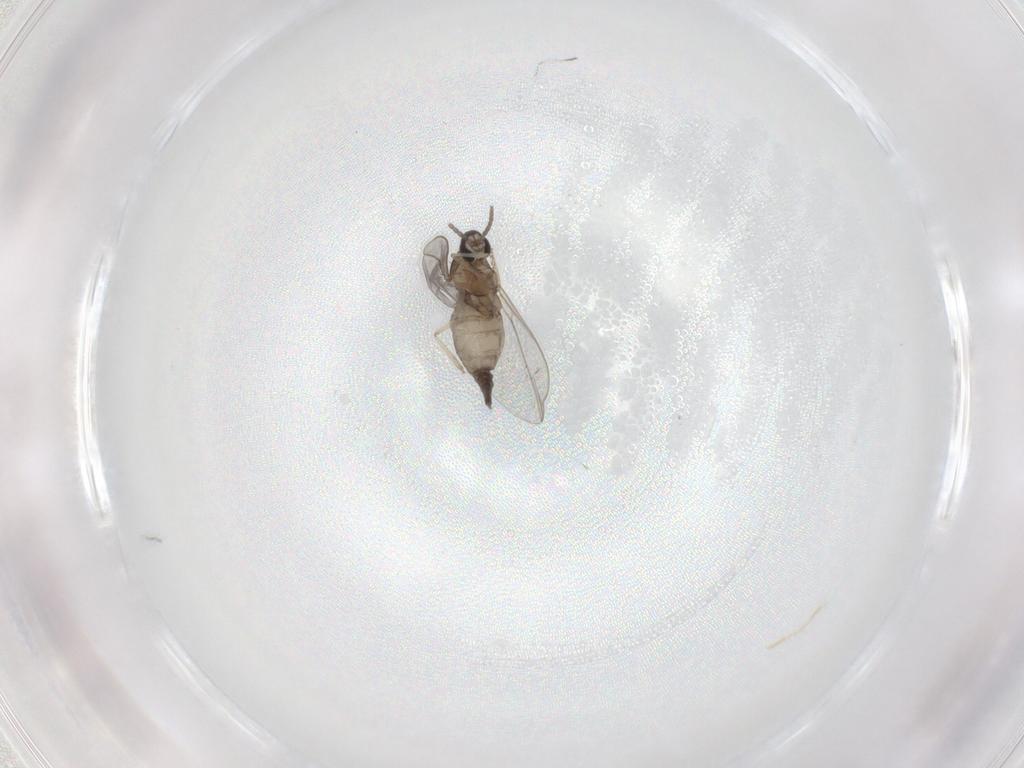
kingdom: Animalia
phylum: Arthropoda
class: Insecta
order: Diptera
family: Cecidomyiidae
